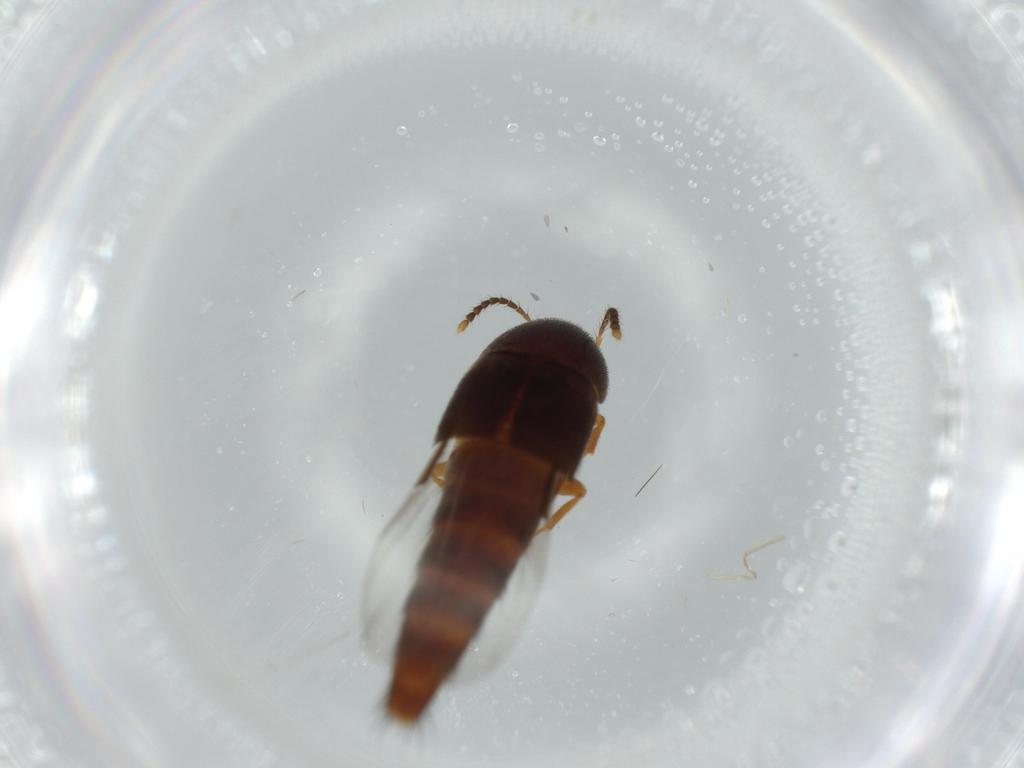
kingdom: Animalia
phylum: Arthropoda
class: Insecta
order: Coleoptera
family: Staphylinidae
